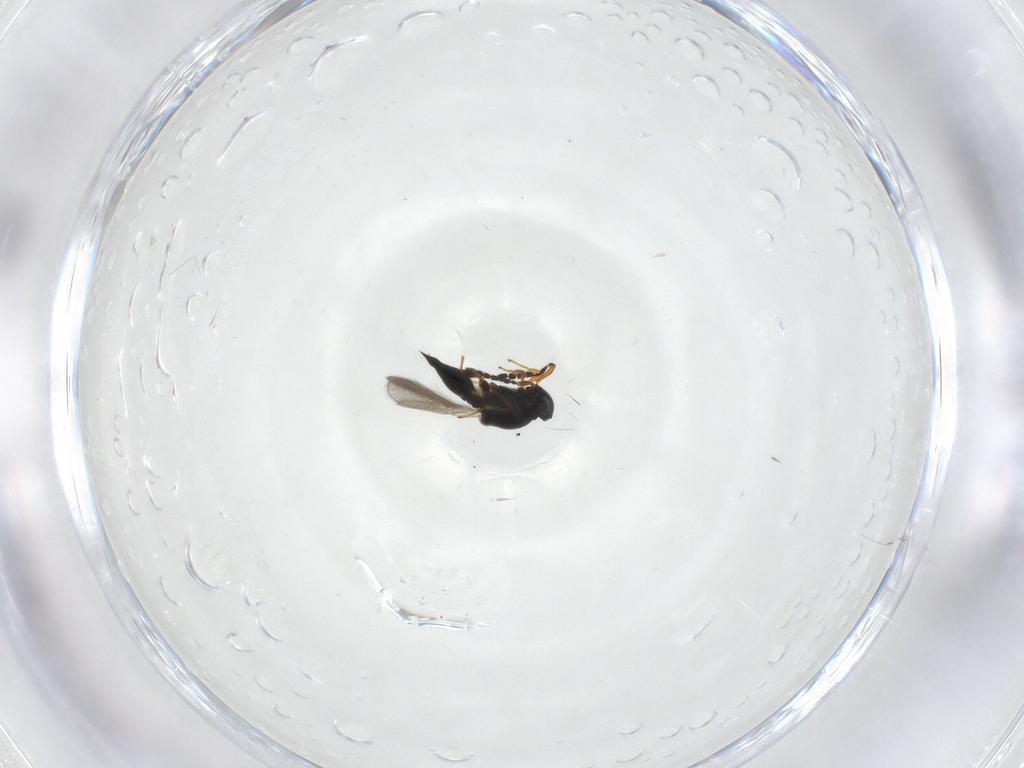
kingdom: Animalia
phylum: Arthropoda
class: Insecta
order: Hymenoptera
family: Platygastridae
